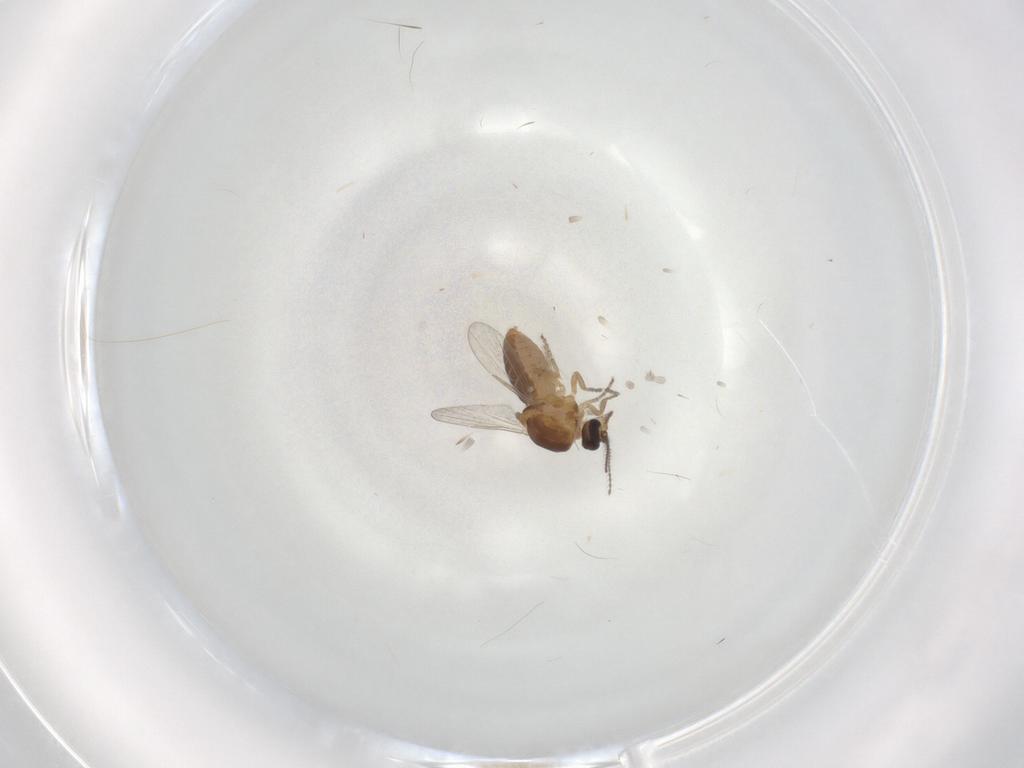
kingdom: Animalia
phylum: Arthropoda
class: Insecta
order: Diptera
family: Ceratopogonidae
